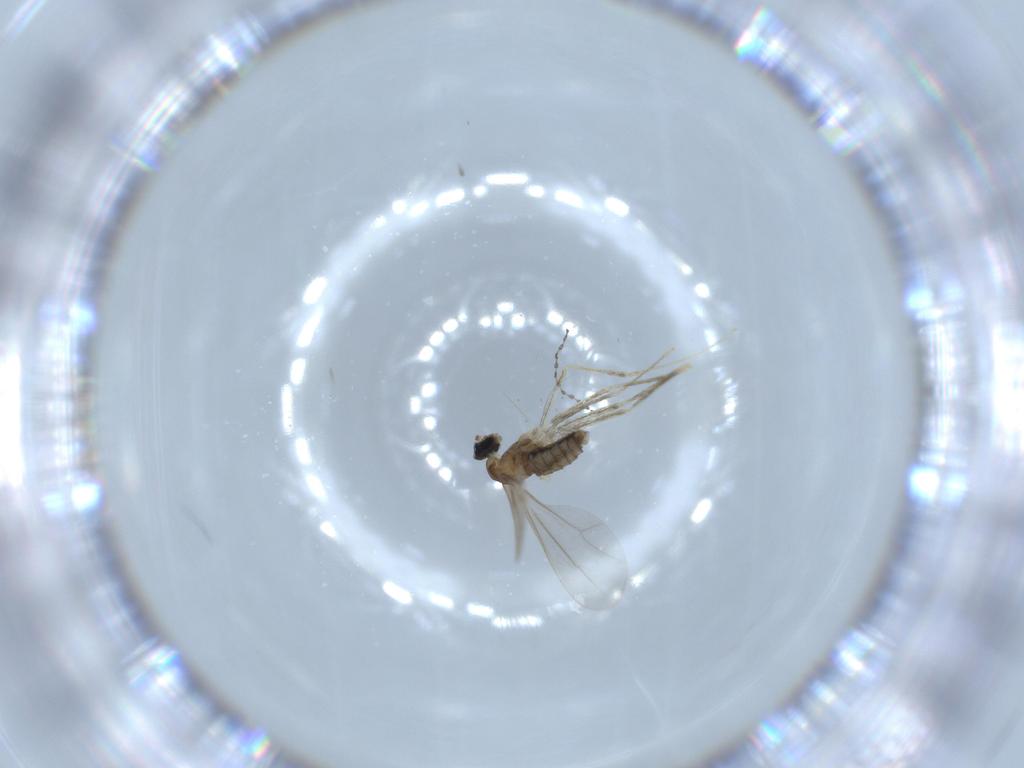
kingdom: Animalia
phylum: Arthropoda
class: Insecta
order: Diptera
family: Cecidomyiidae
